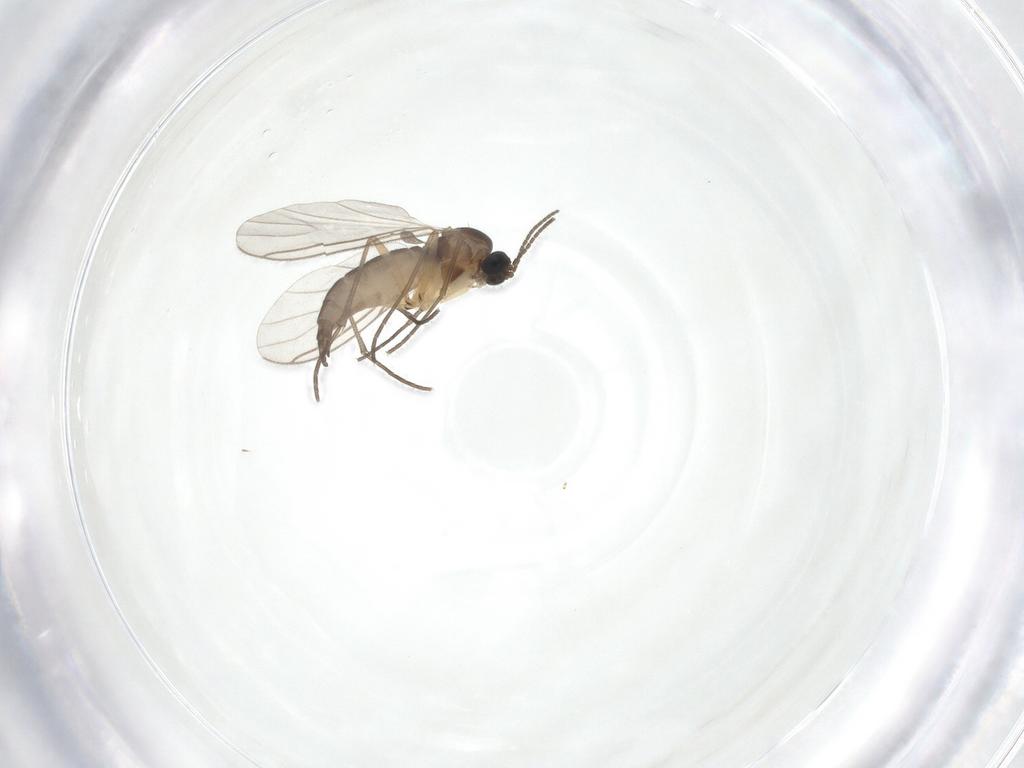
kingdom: Animalia
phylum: Arthropoda
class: Insecta
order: Diptera
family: Sciaridae
